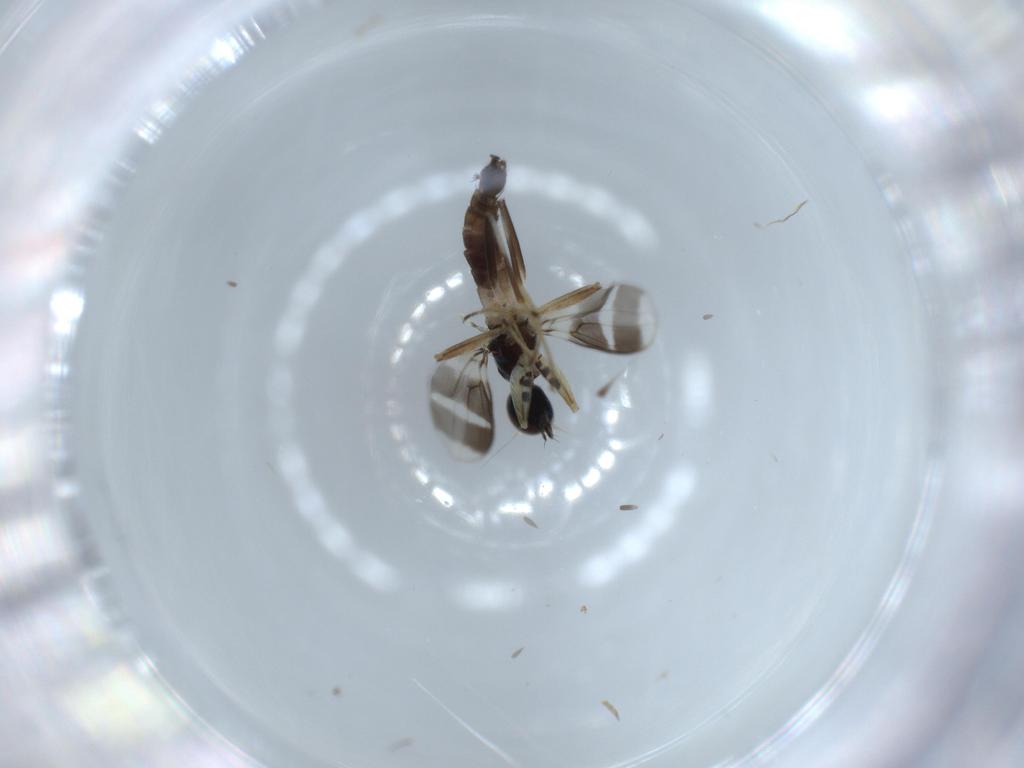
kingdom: Animalia
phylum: Arthropoda
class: Insecta
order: Diptera
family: Hybotidae
